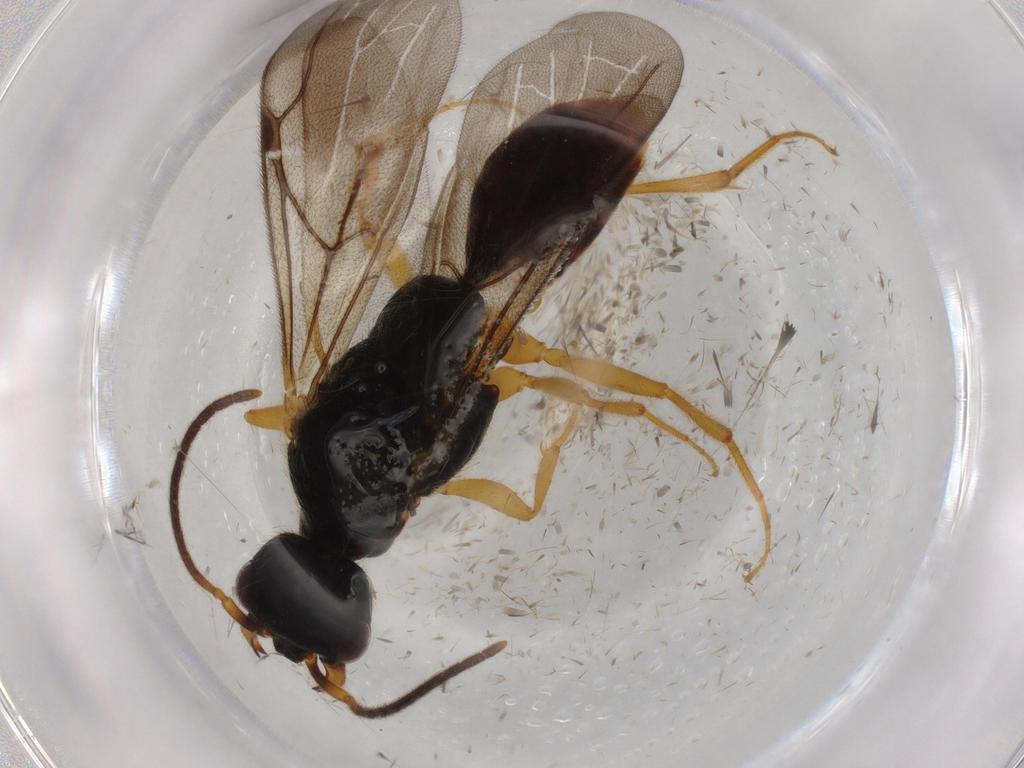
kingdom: Animalia
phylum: Arthropoda
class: Insecta
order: Hymenoptera
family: Bethylidae
